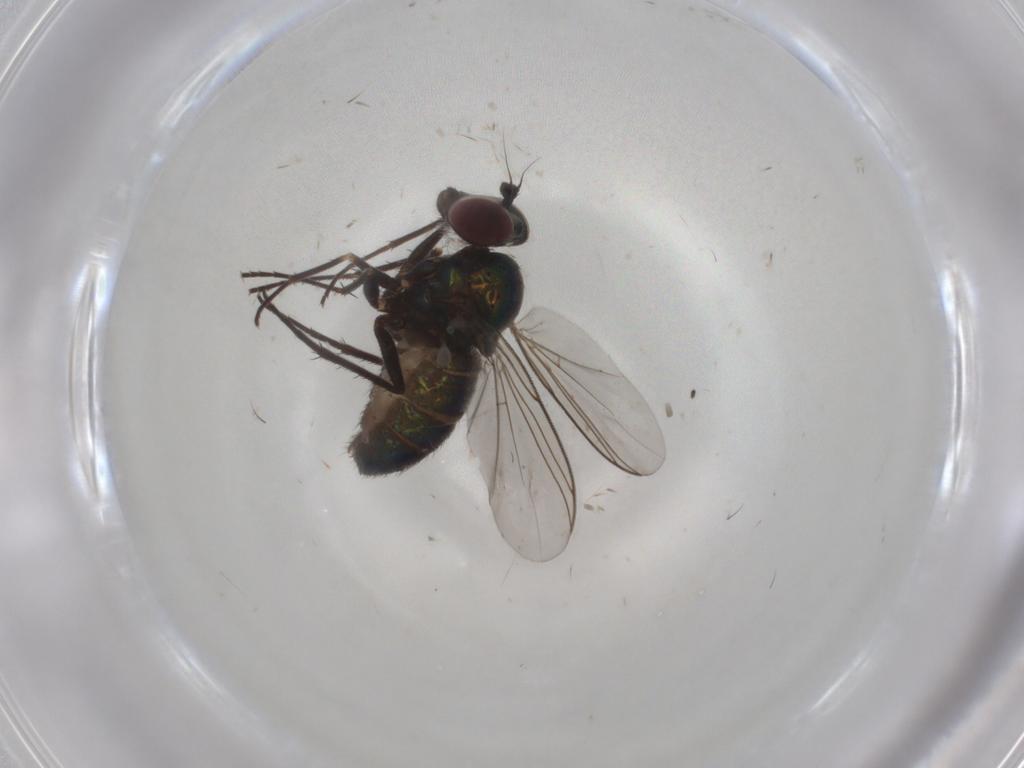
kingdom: Animalia
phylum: Arthropoda
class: Insecta
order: Diptera
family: Dolichopodidae
